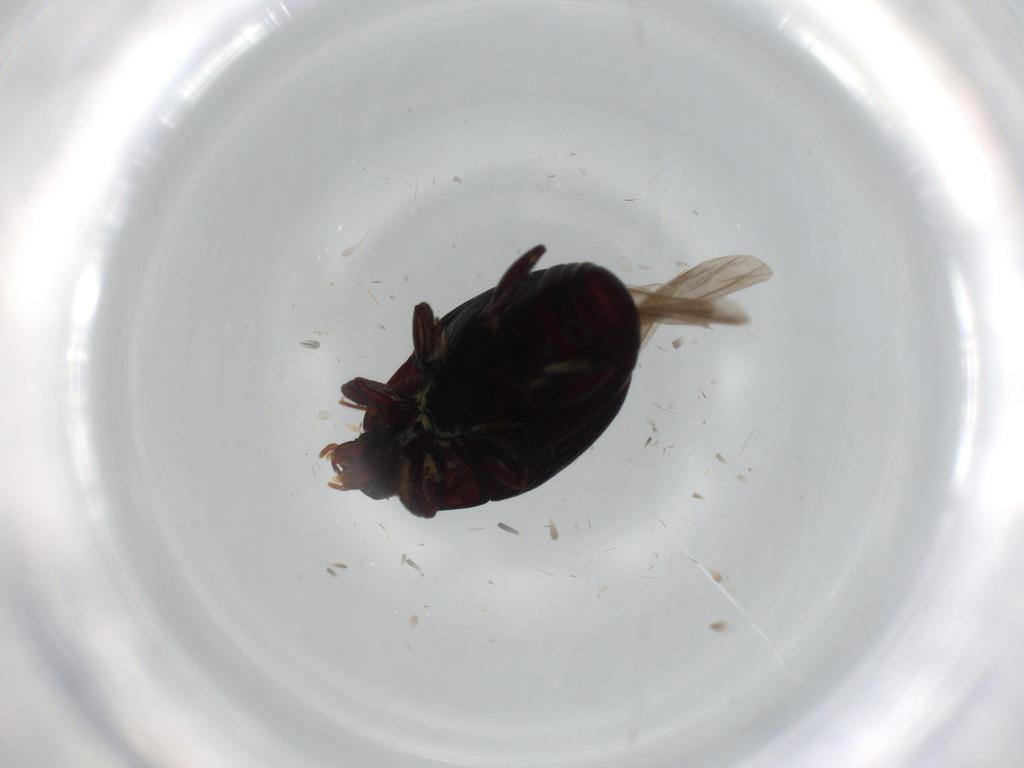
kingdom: Animalia
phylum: Arthropoda
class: Insecta
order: Coleoptera
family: Staphylinidae
